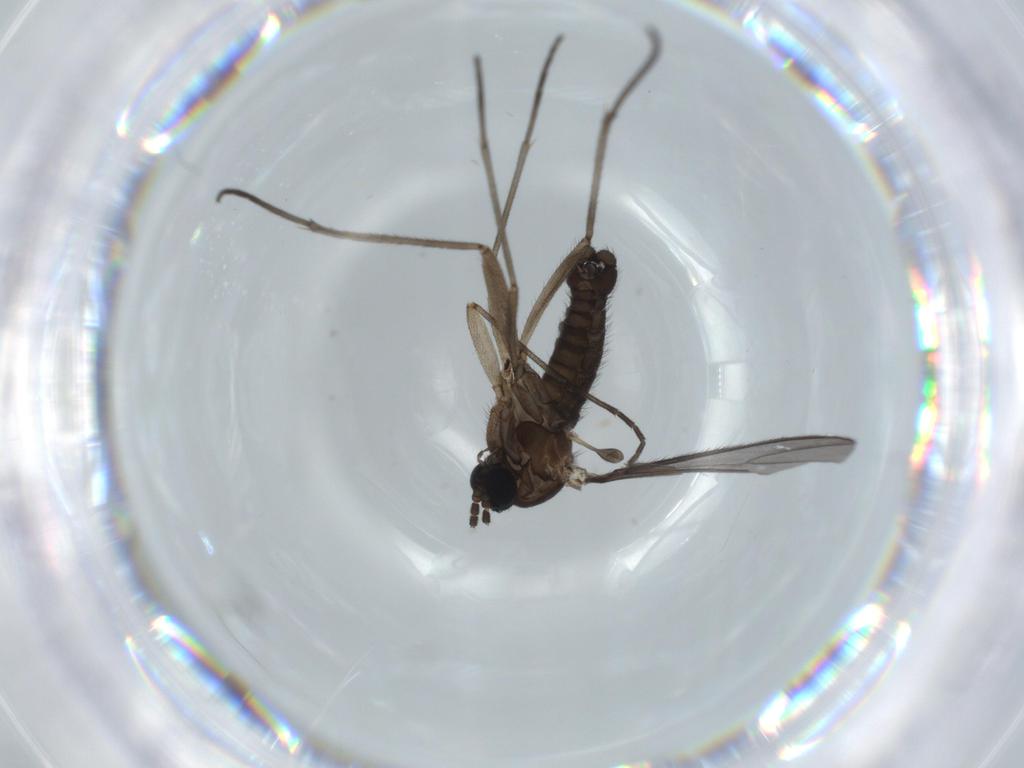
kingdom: Animalia
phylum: Arthropoda
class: Insecta
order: Diptera
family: Sciaridae
